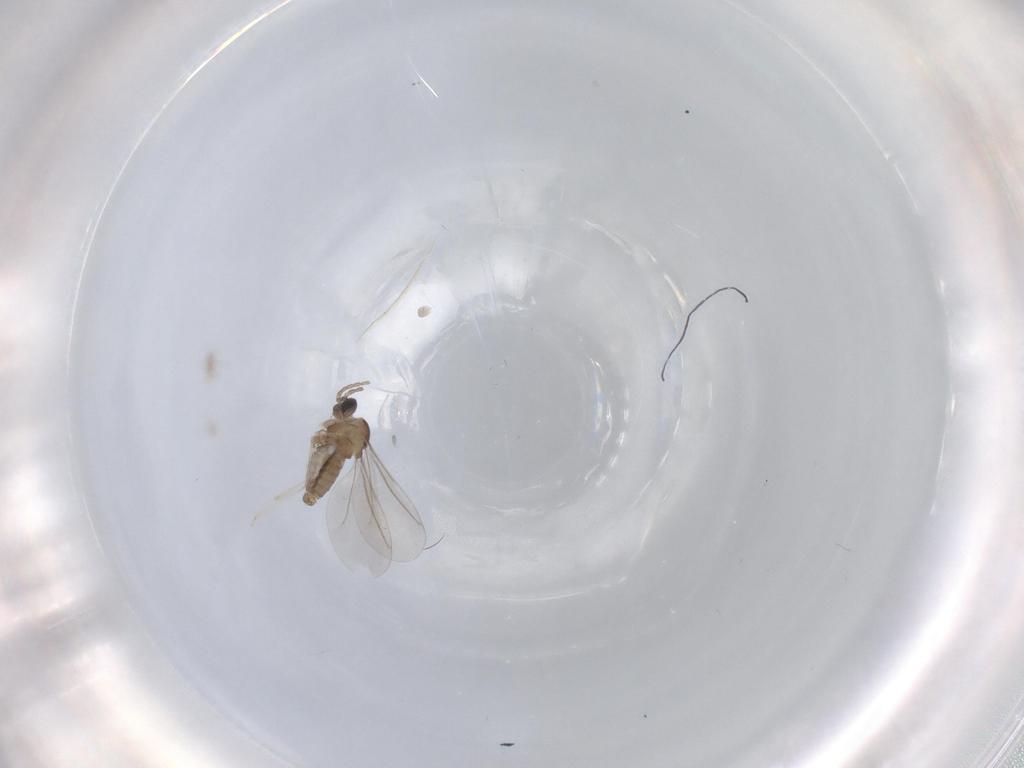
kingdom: Animalia
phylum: Arthropoda
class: Insecta
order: Diptera
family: Cecidomyiidae
